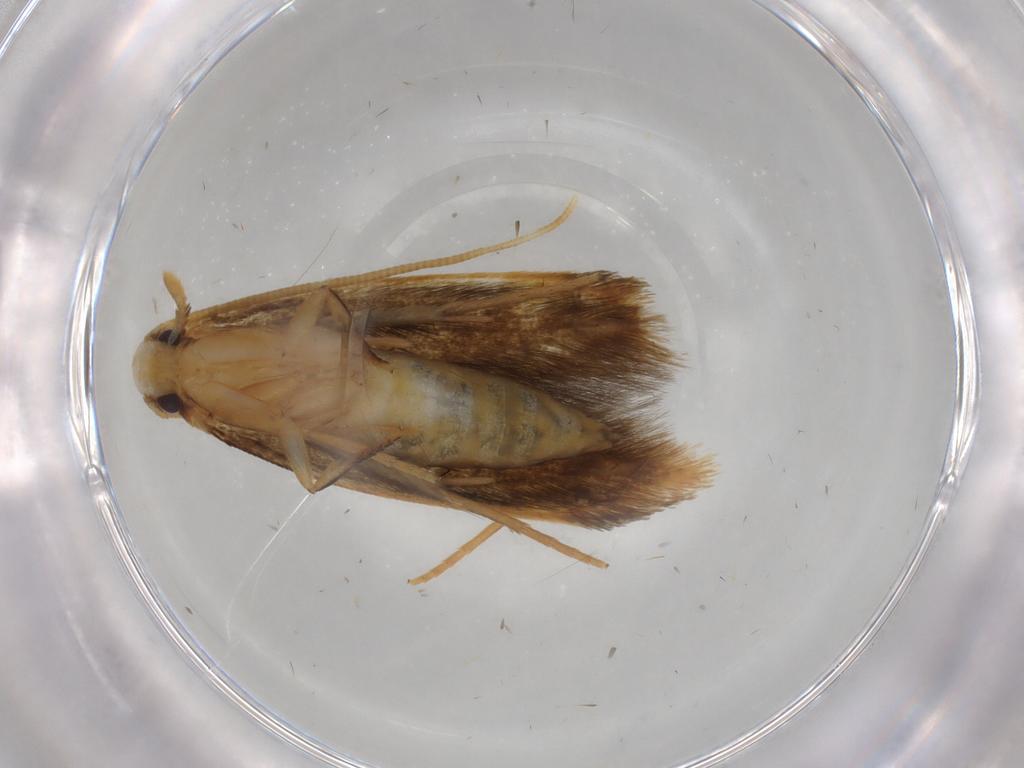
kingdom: Animalia
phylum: Arthropoda
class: Insecta
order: Lepidoptera
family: Tineidae
